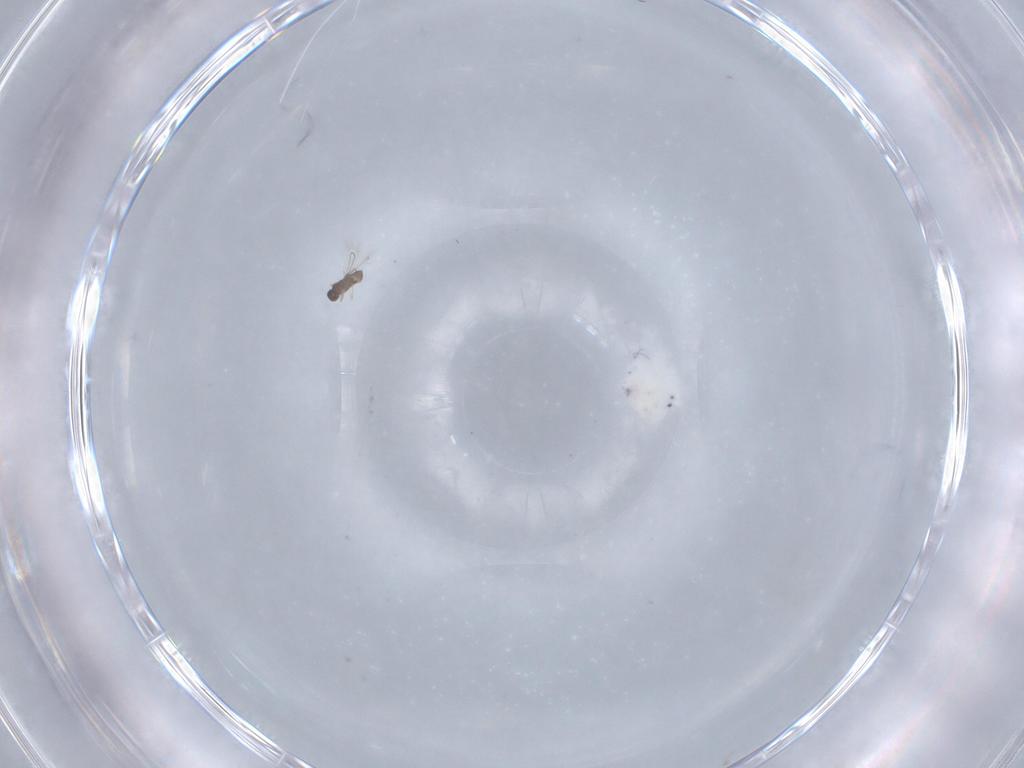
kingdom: Animalia
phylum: Arthropoda
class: Insecta
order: Hymenoptera
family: Mymaridae
